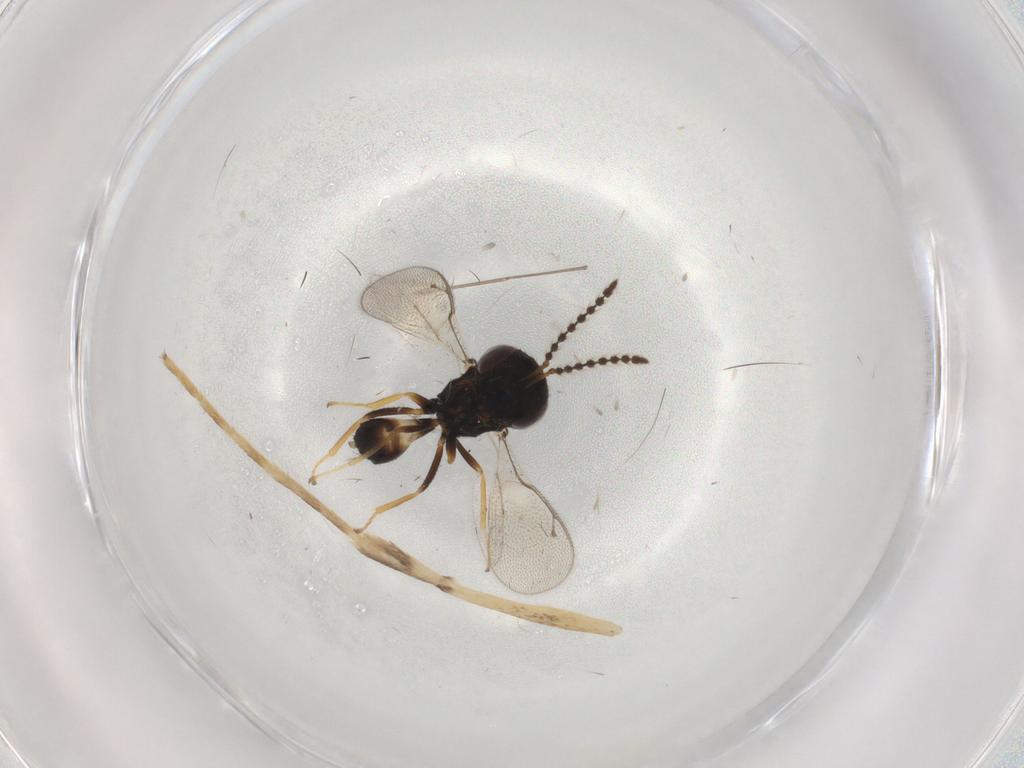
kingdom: Animalia
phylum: Arthropoda
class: Insecta
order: Hymenoptera
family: Pteromalidae
